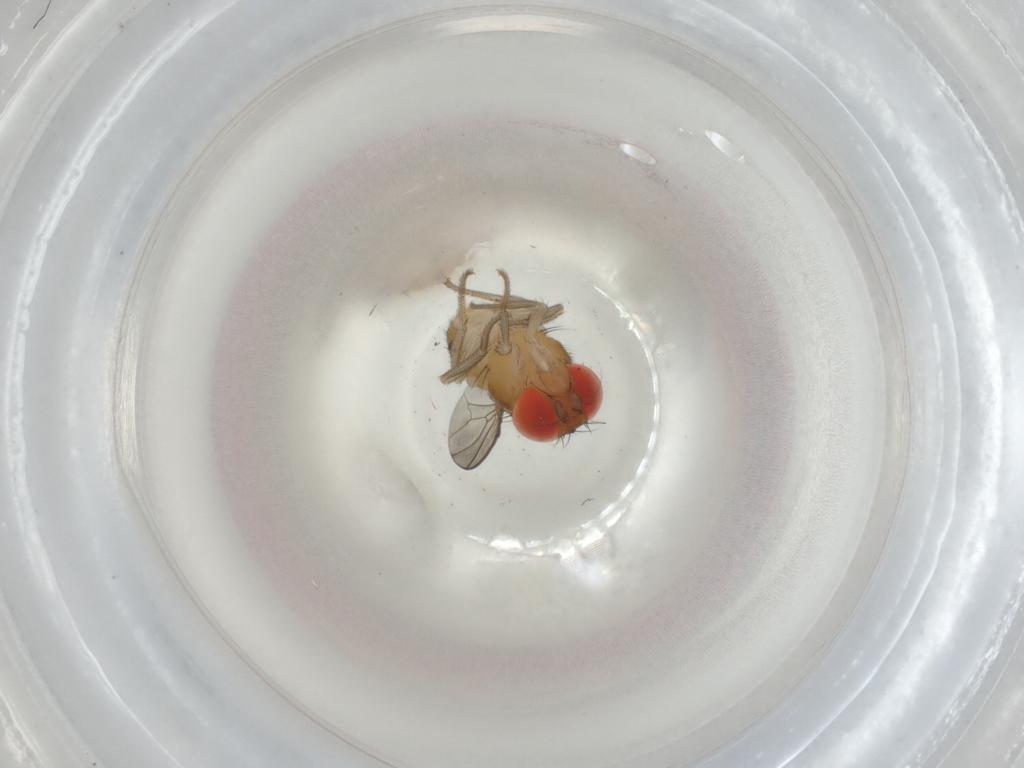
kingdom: Animalia
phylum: Arthropoda
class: Insecta
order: Diptera
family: Drosophilidae
